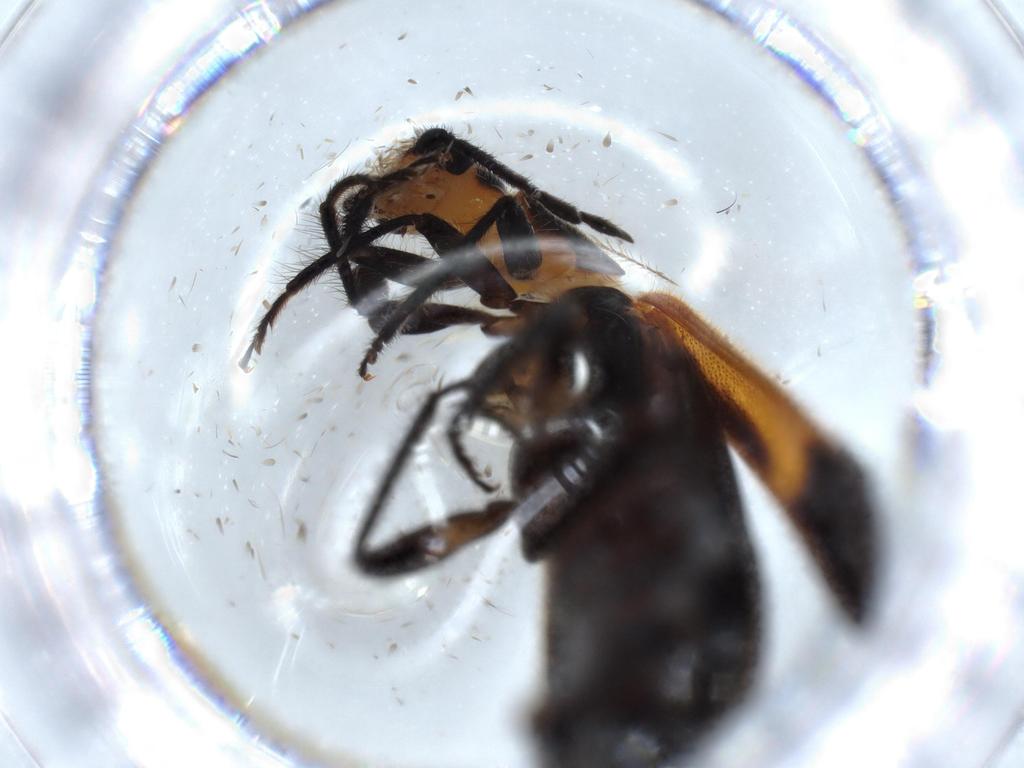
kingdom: Animalia
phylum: Arthropoda
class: Insecta
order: Coleoptera
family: Cleridae
